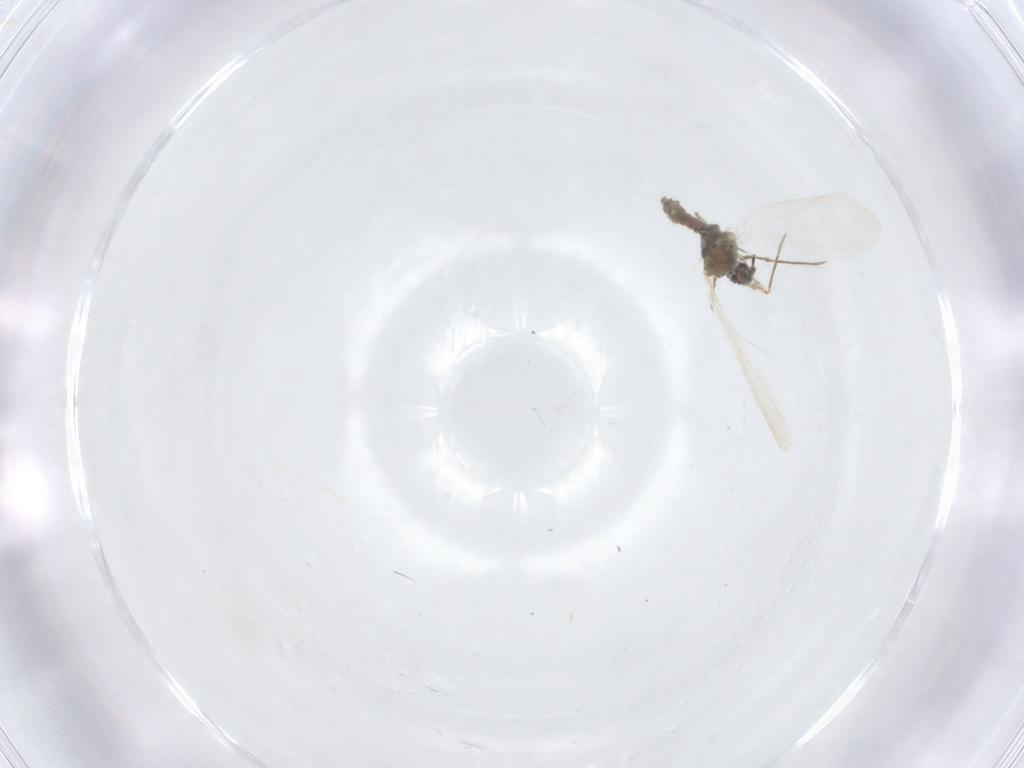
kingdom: Animalia
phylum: Arthropoda
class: Insecta
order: Hemiptera
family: Pseudococcidae
